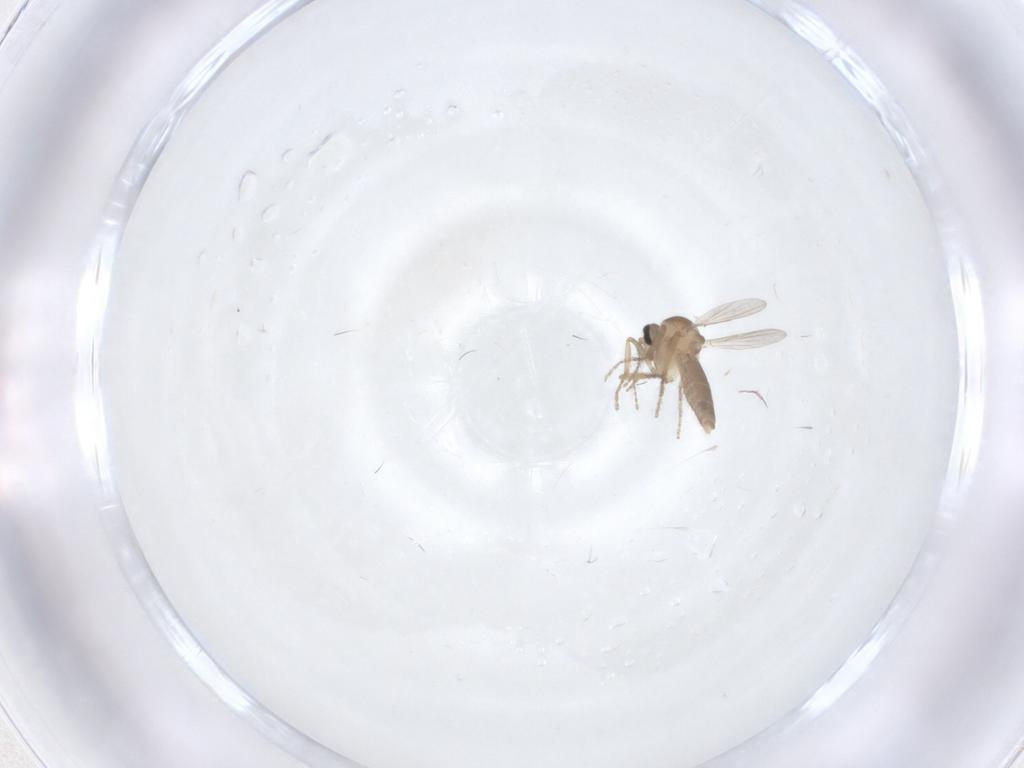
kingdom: Animalia
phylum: Arthropoda
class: Insecta
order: Diptera
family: Ceratopogonidae
